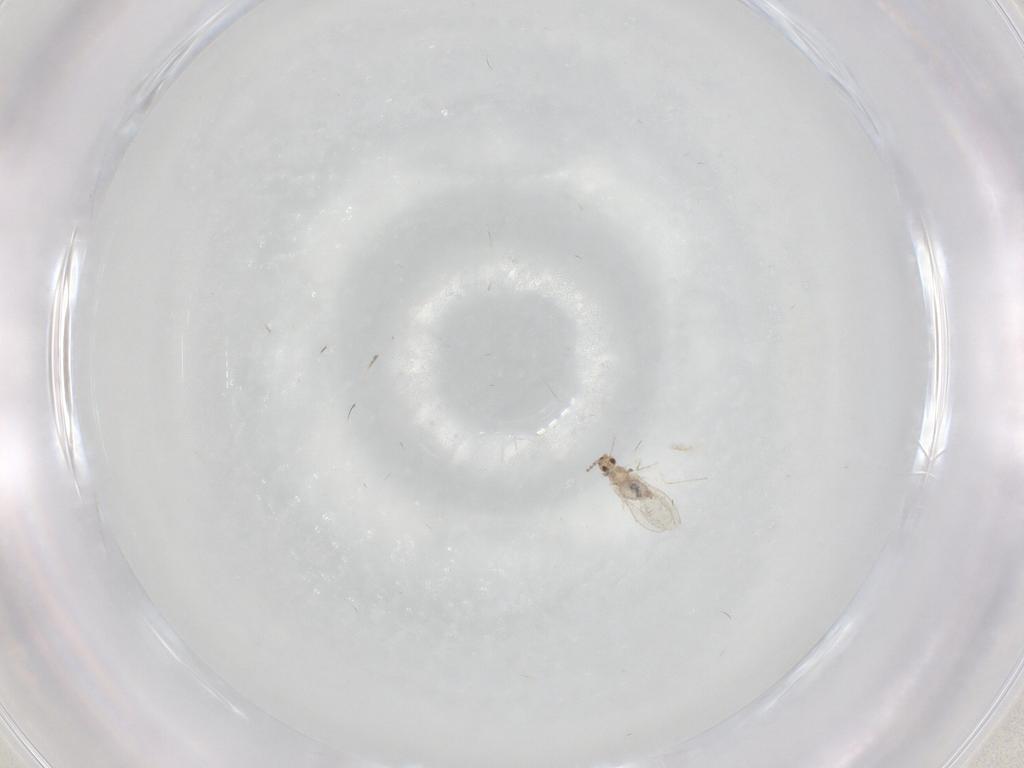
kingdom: Animalia
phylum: Arthropoda
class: Insecta
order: Diptera
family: Cecidomyiidae
